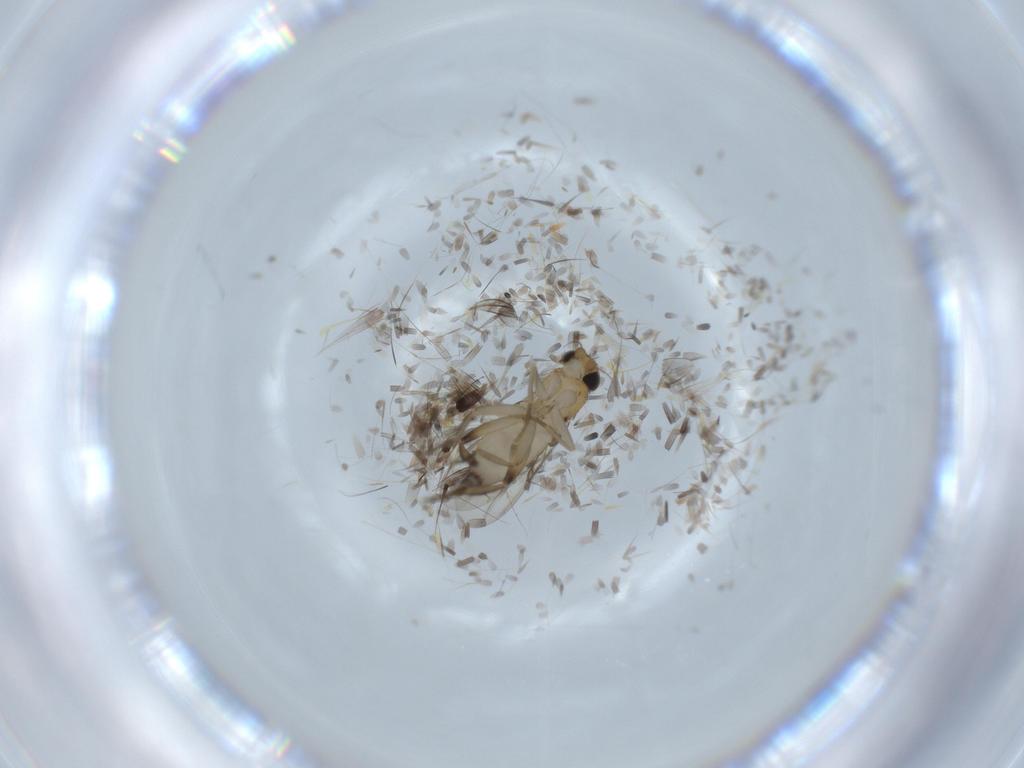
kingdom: Animalia
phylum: Arthropoda
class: Insecta
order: Diptera
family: Phoridae
